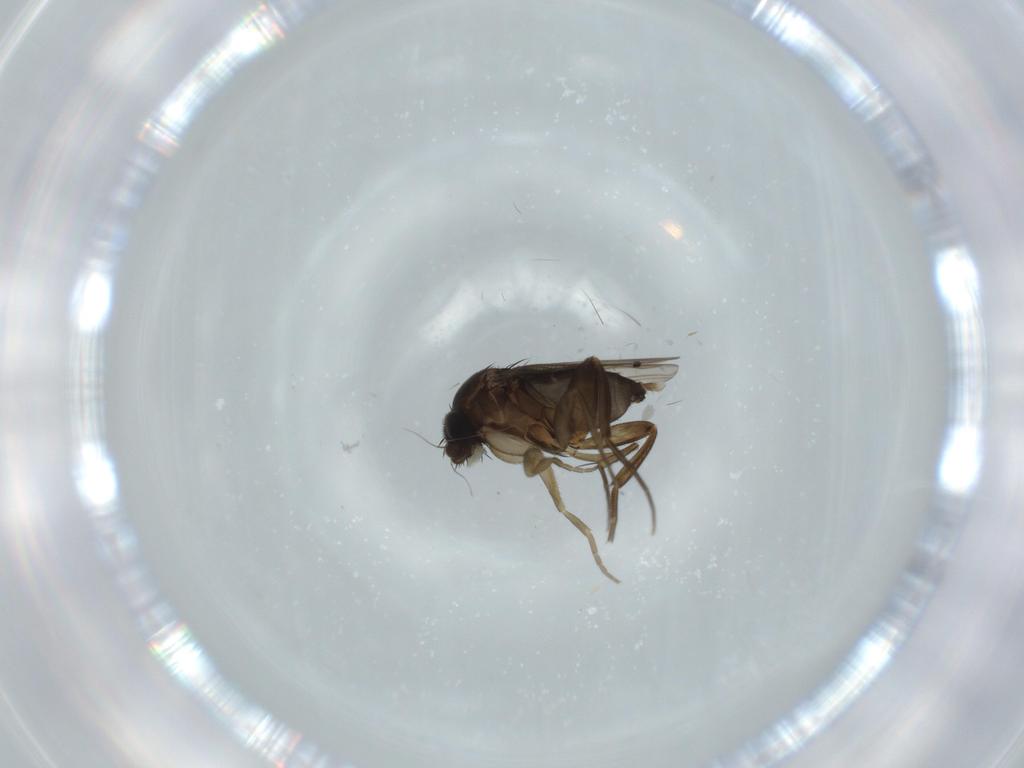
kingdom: Animalia
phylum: Arthropoda
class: Insecta
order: Diptera
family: Phoridae
